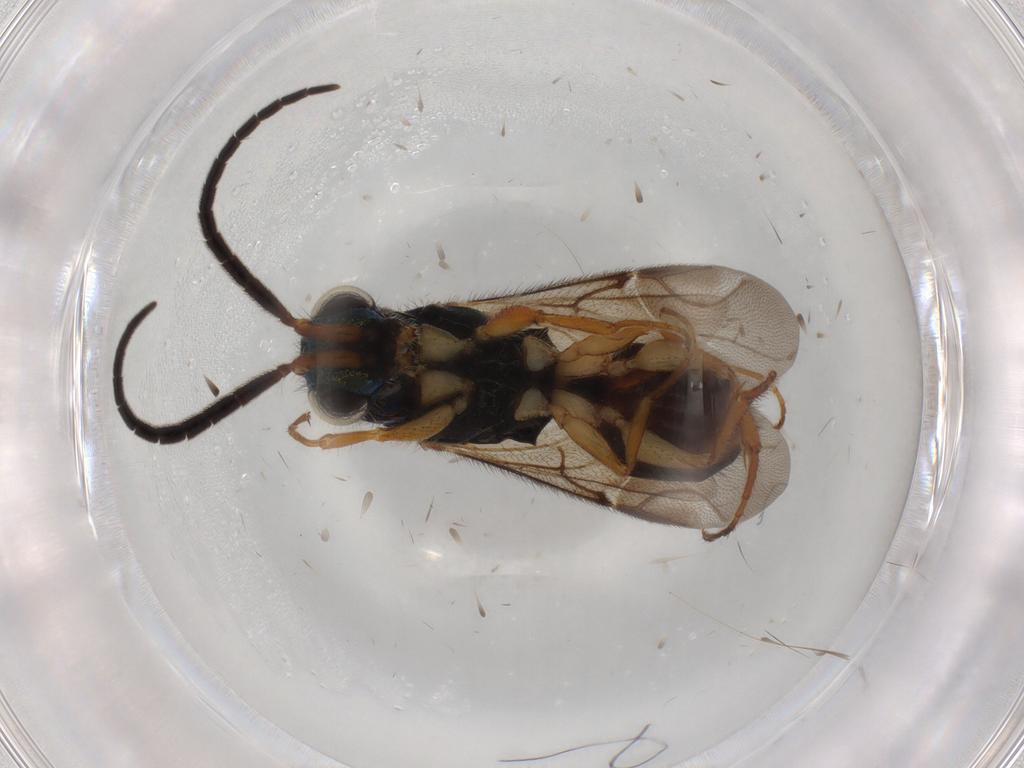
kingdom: Animalia
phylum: Arthropoda
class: Insecta
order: Hymenoptera
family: Chrysididae
